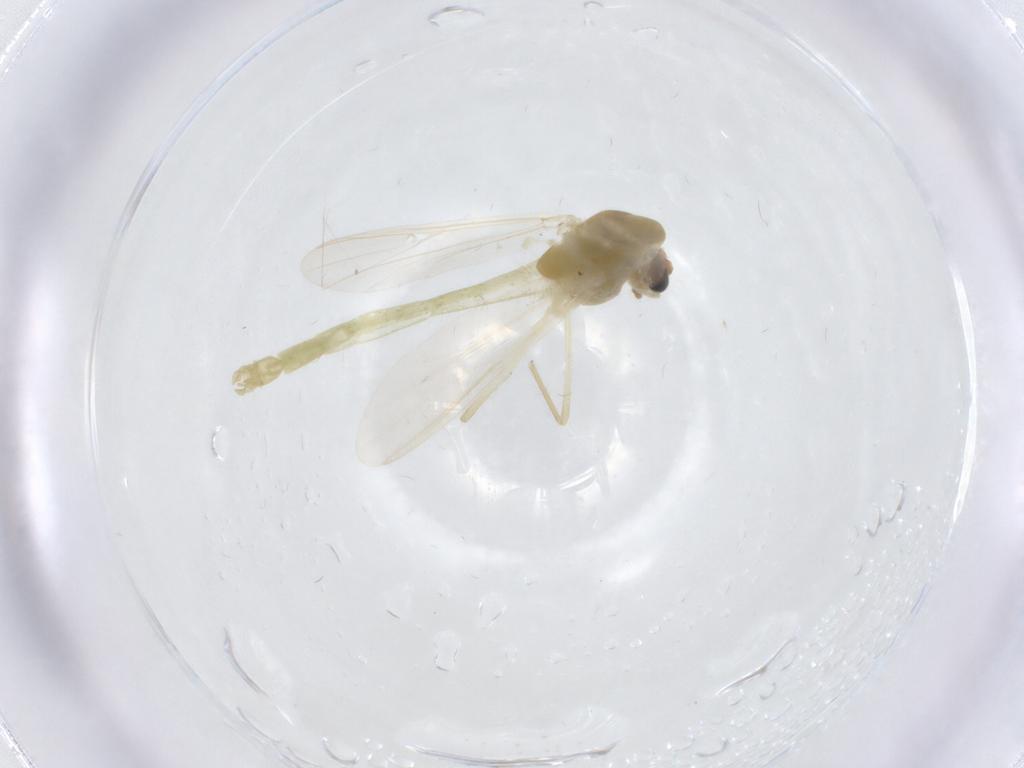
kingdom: Animalia
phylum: Arthropoda
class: Insecta
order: Diptera
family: Chironomidae
